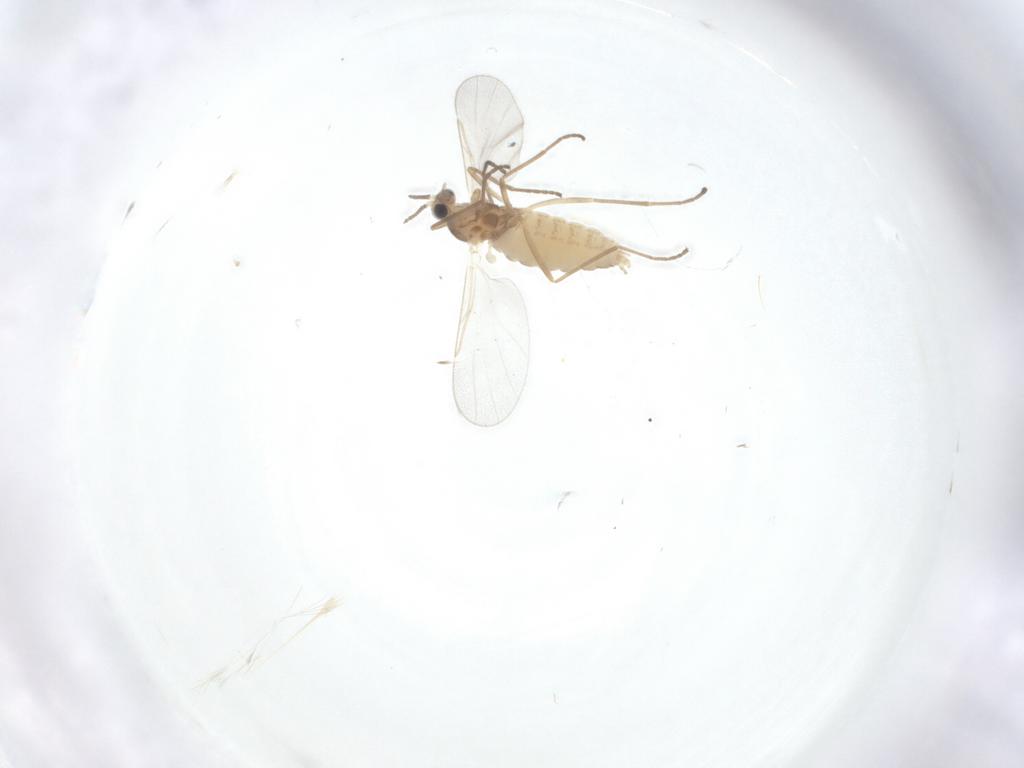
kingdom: Animalia
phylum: Arthropoda
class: Insecta
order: Diptera
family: Cecidomyiidae
